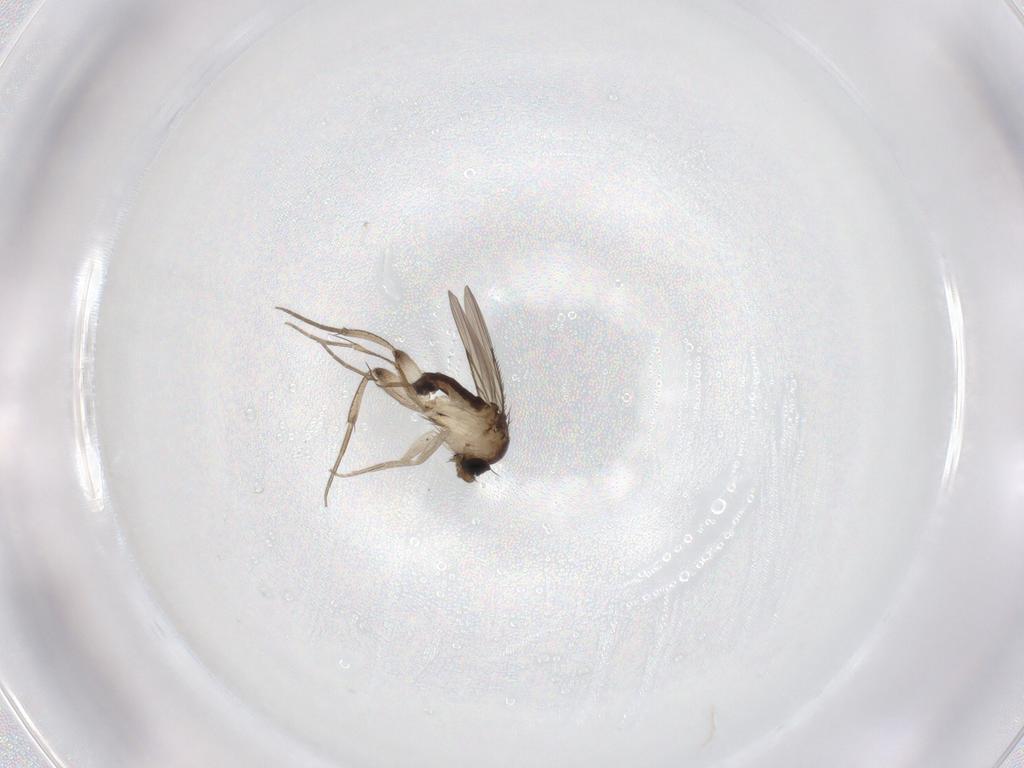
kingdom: Animalia
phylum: Arthropoda
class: Insecta
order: Diptera
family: Phoridae
